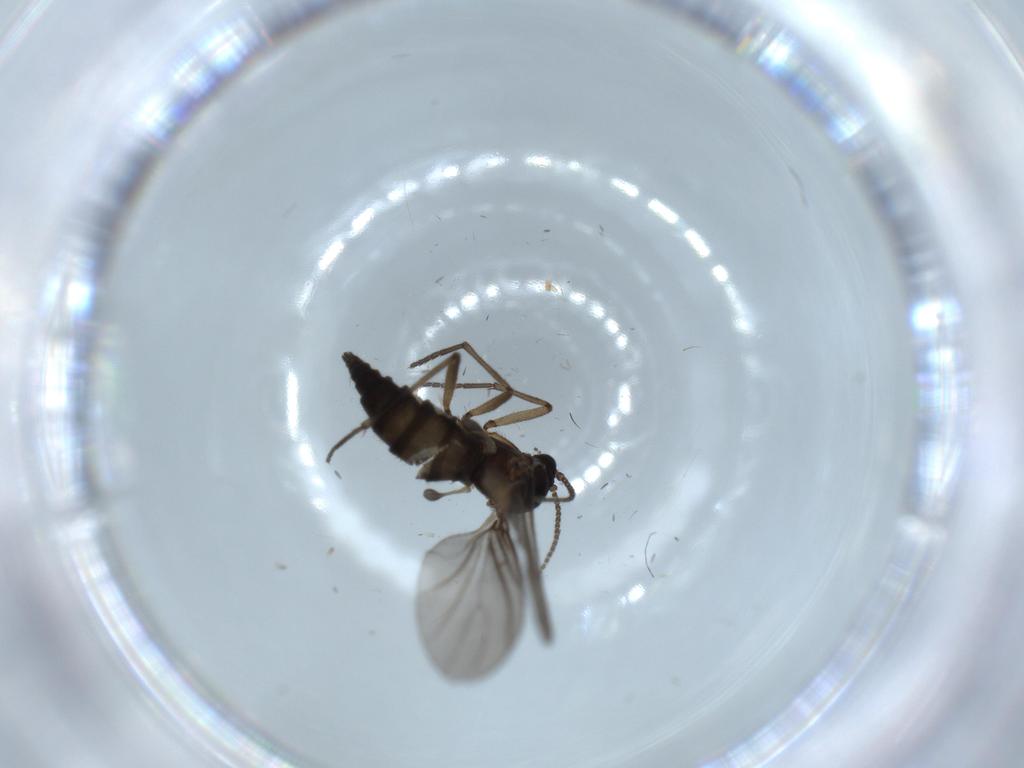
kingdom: Animalia
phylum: Arthropoda
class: Insecta
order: Diptera
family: Sciaridae
